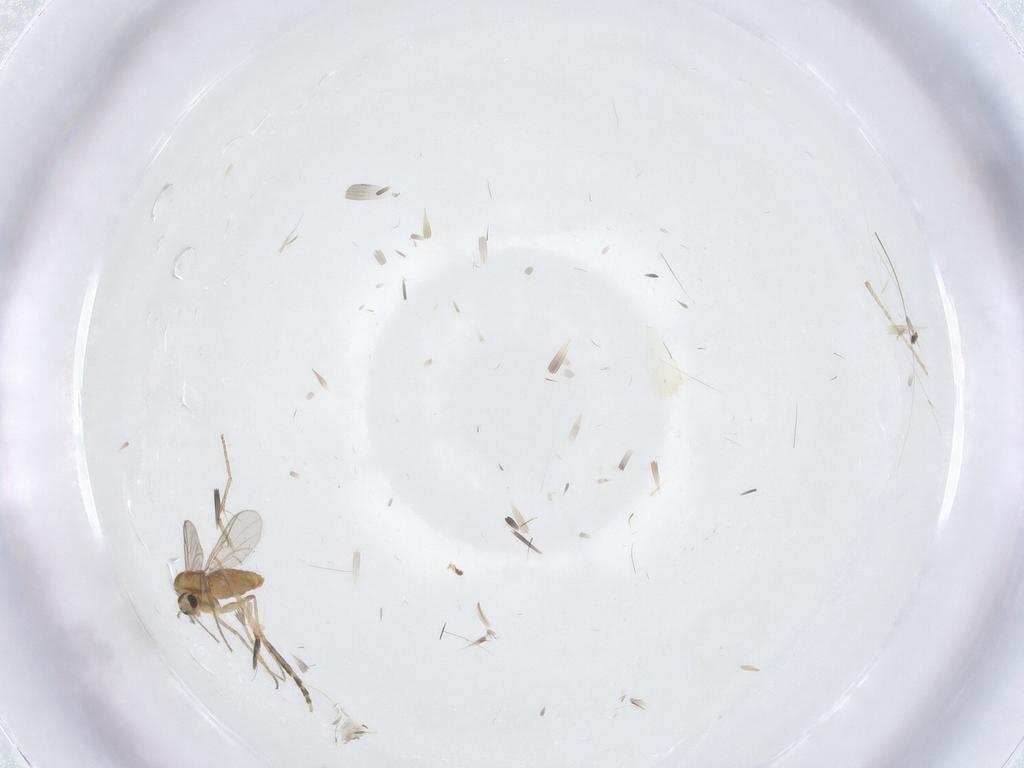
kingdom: Animalia
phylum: Arthropoda
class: Insecta
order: Diptera
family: Chironomidae
